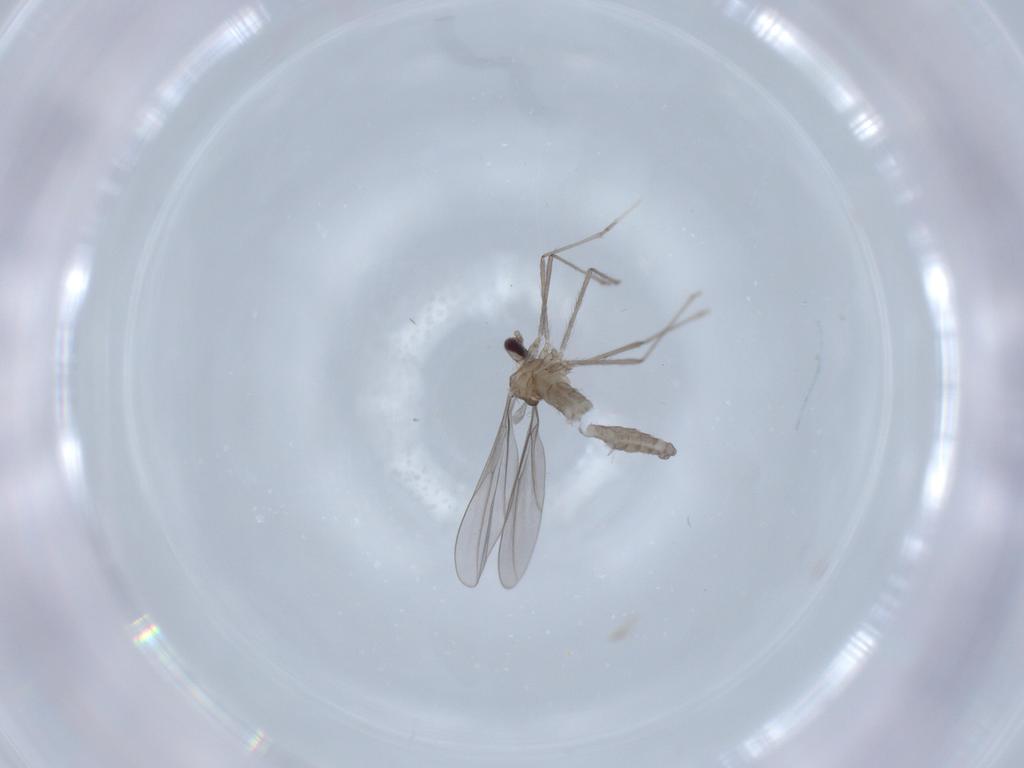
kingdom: Animalia
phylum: Arthropoda
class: Insecta
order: Diptera
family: Cecidomyiidae
